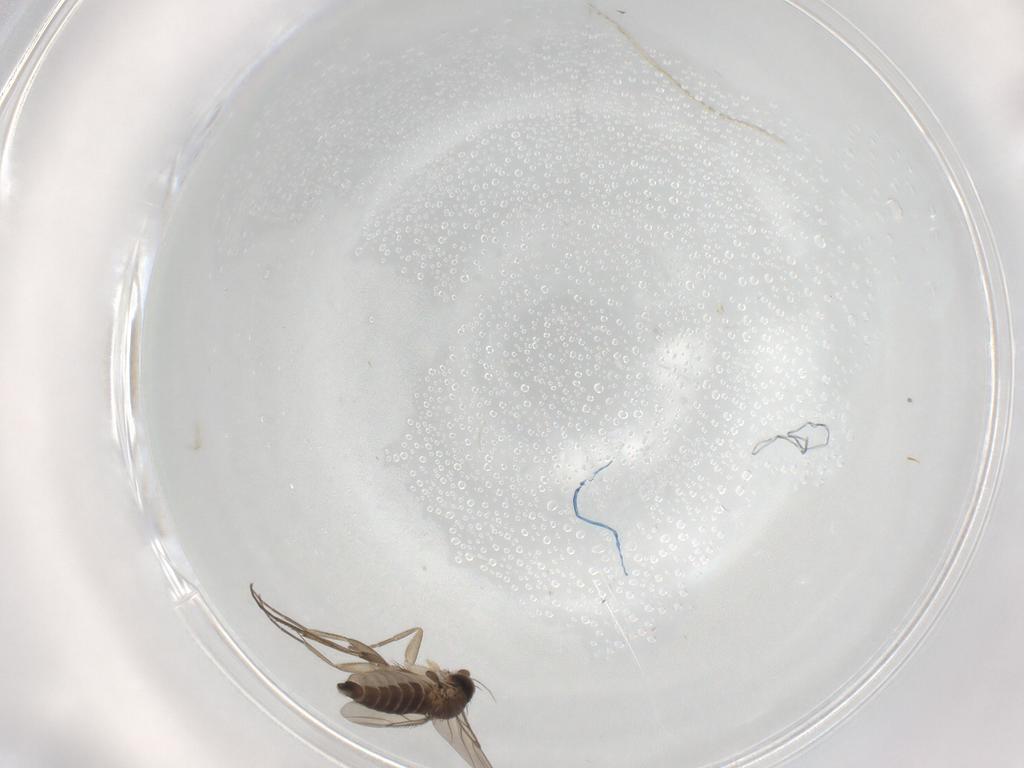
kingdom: Animalia
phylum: Arthropoda
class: Insecta
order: Diptera
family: Phoridae
